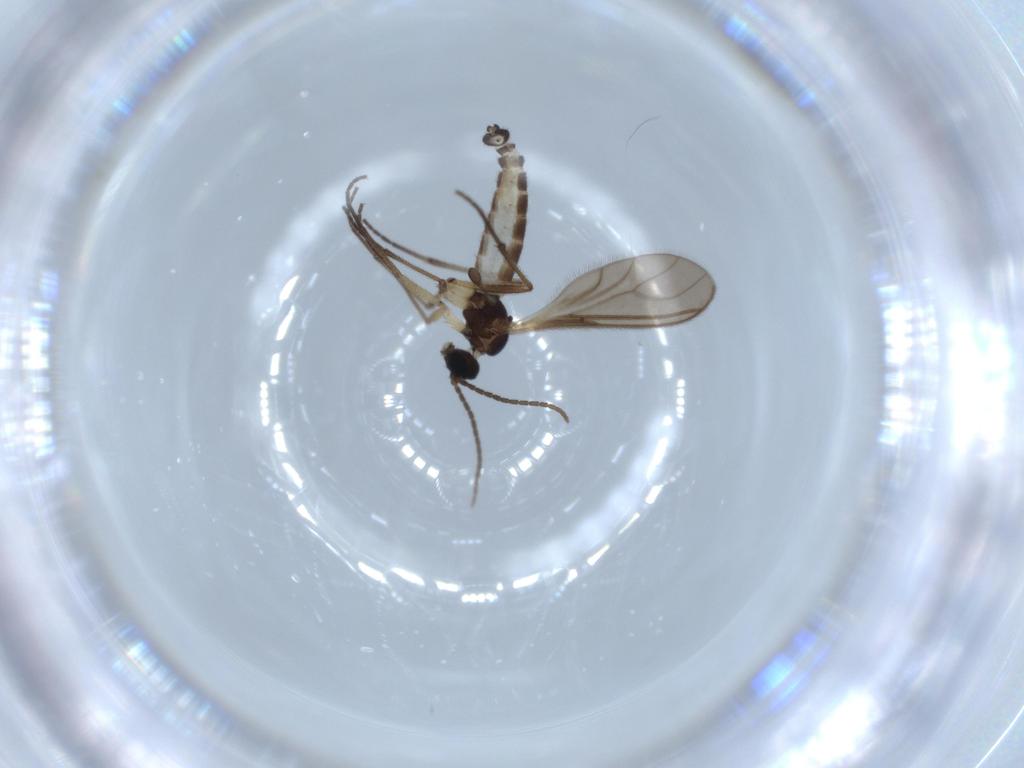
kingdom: Animalia
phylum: Arthropoda
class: Insecta
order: Diptera
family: Sciaridae
